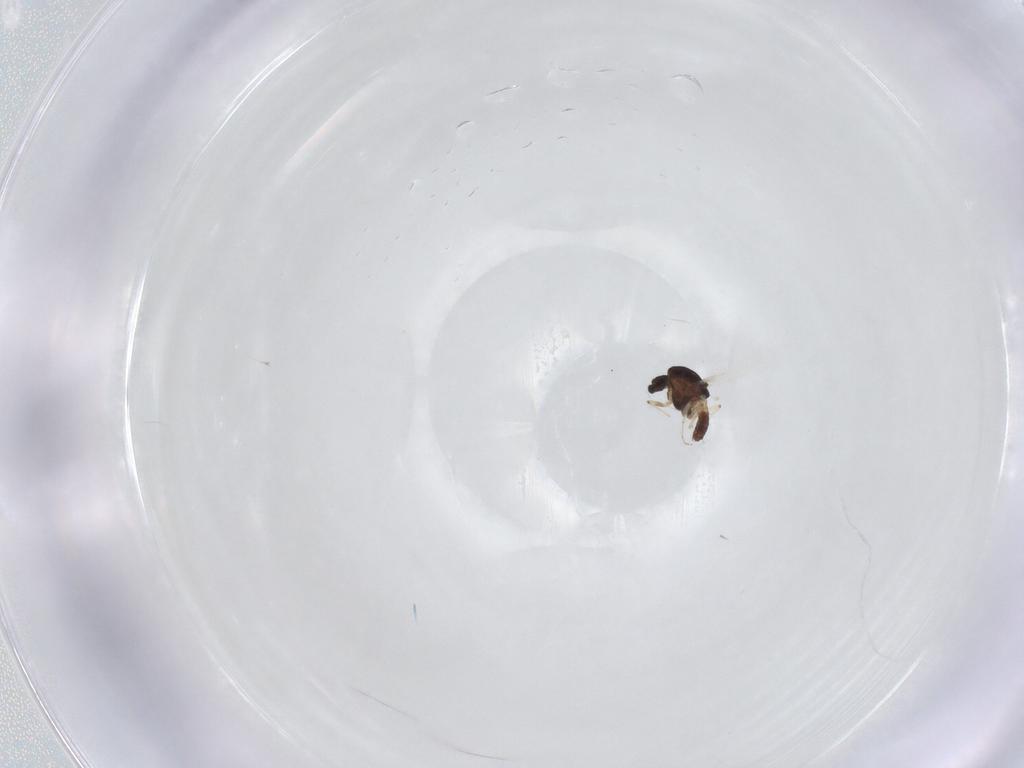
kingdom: Animalia
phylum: Arthropoda
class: Insecta
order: Diptera
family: Chironomidae
